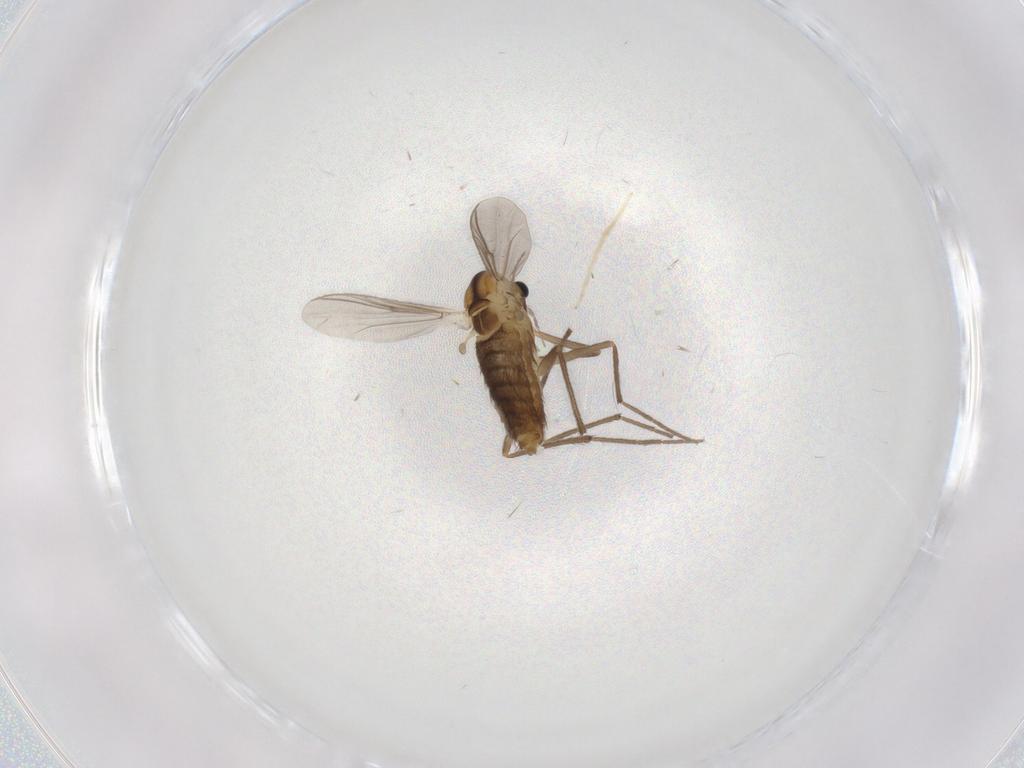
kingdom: Animalia
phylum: Arthropoda
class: Insecta
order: Diptera
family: Chironomidae
